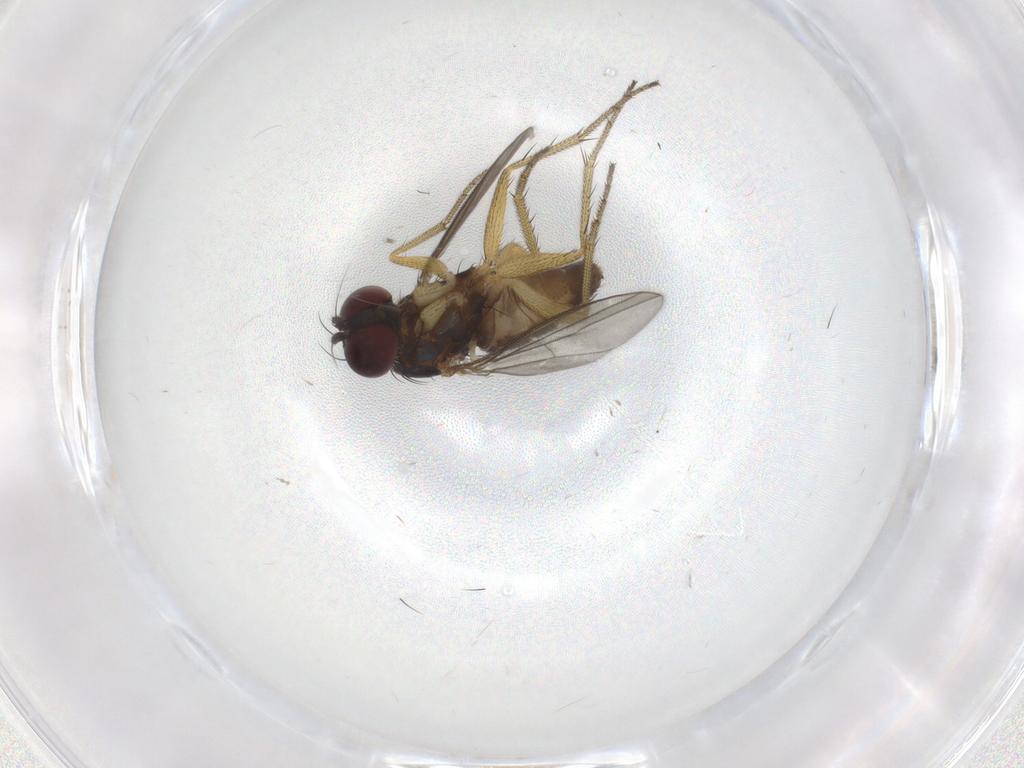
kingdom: Animalia
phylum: Arthropoda
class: Insecta
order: Diptera
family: Dolichopodidae
